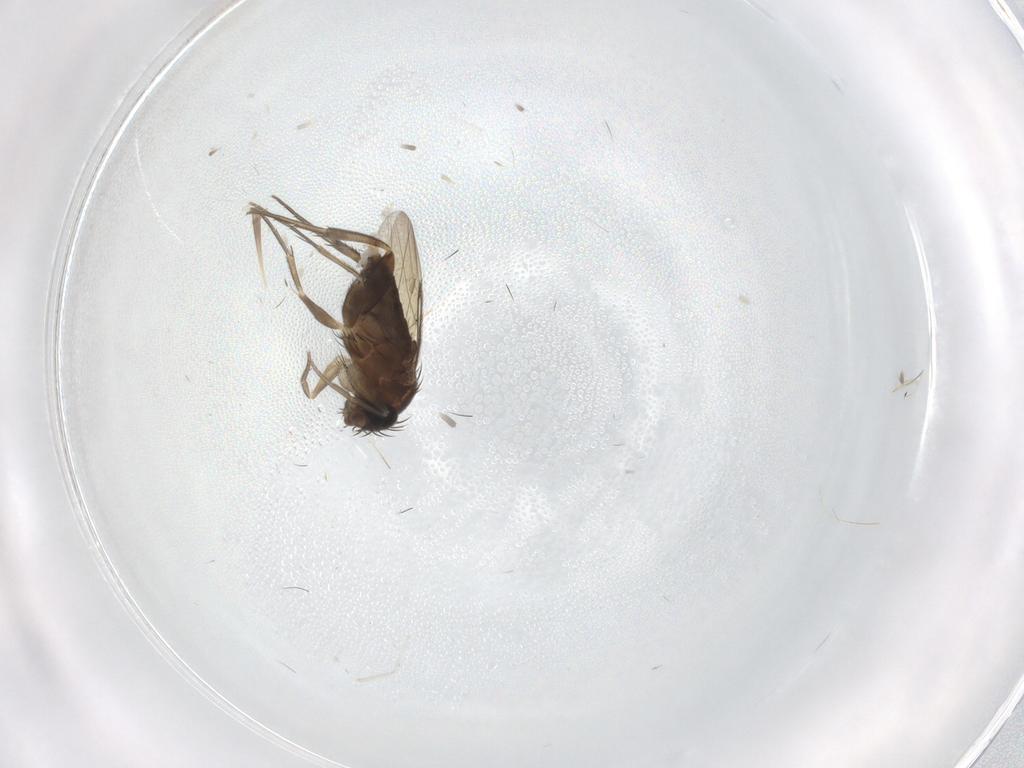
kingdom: Animalia
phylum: Arthropoda
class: Insecta
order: Diptera
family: Phoridae
